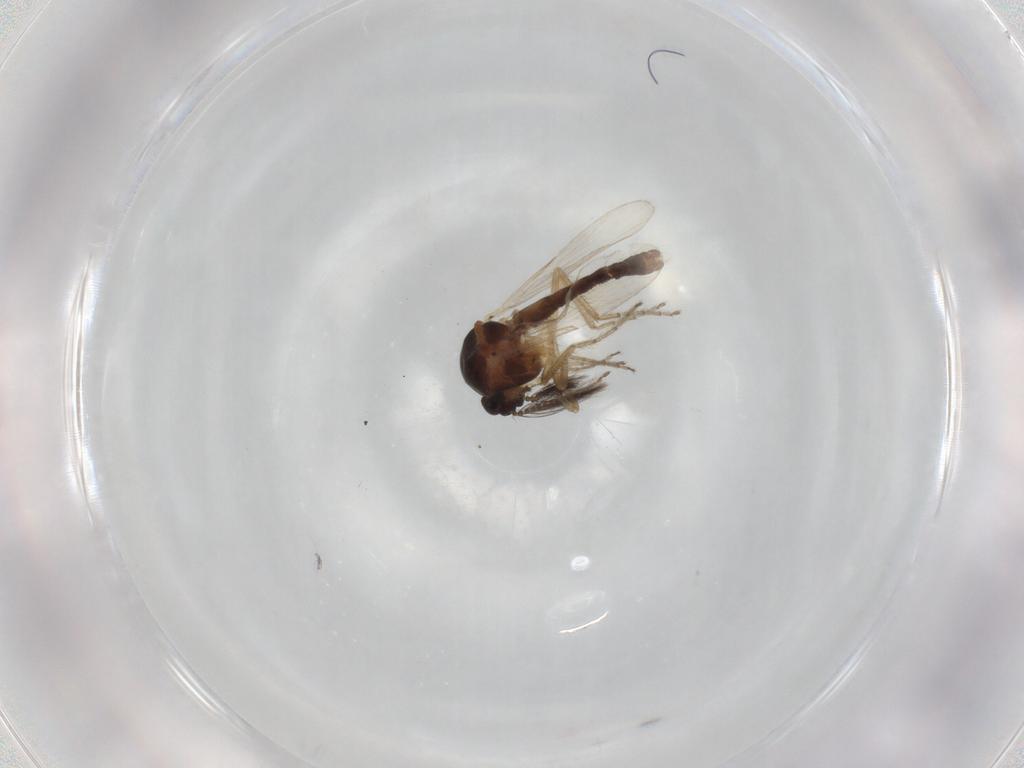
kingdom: Animalia
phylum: Arthropoda
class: Insecta
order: Diptera
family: Ceratopogonidae
